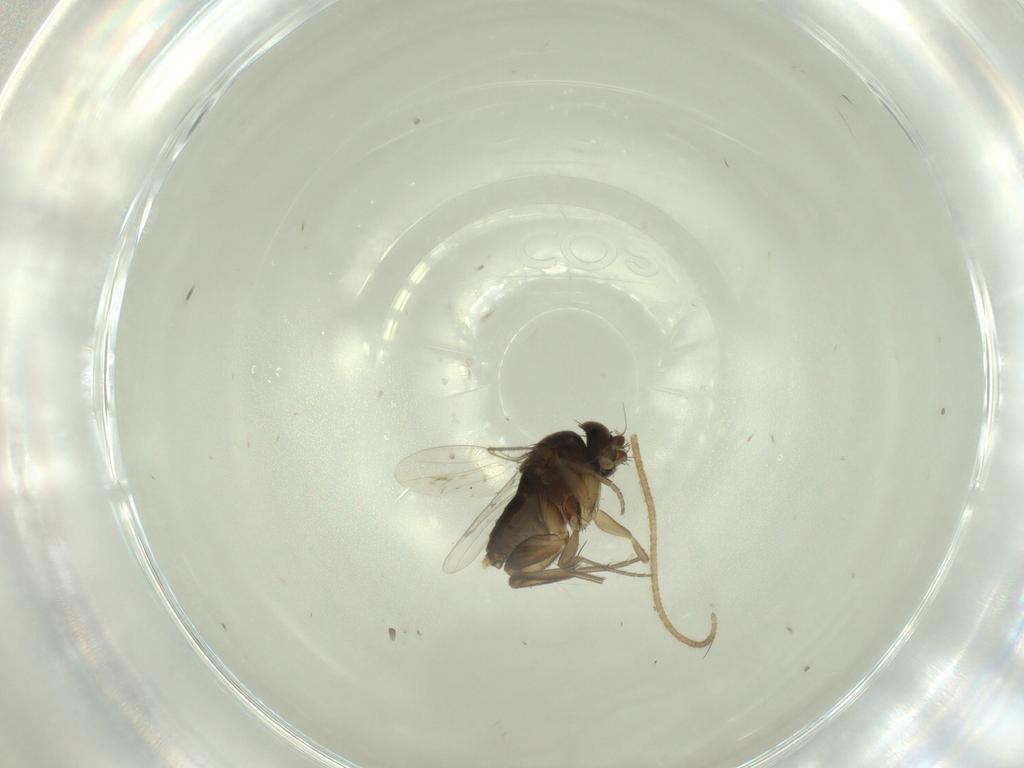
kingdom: Animalia
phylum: Arthropoda
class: Insecta
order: Diptera
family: Phoridae
